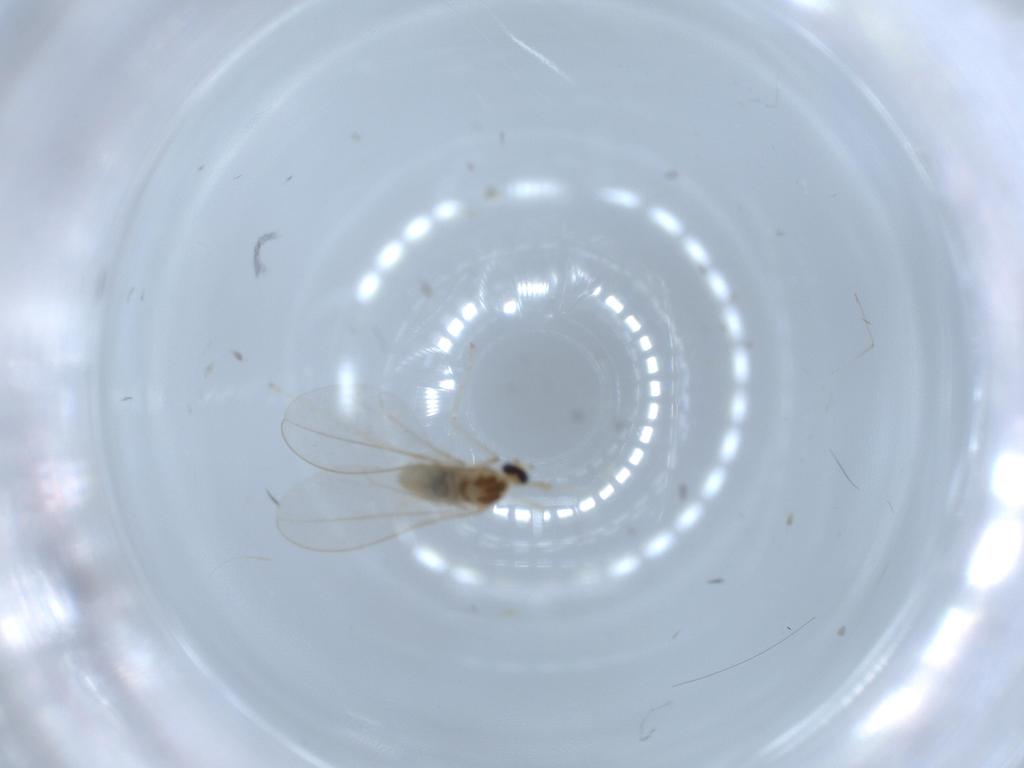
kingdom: Animalia
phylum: Arthropoda
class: Insecta
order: Diptera
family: Cecidomyiidae
